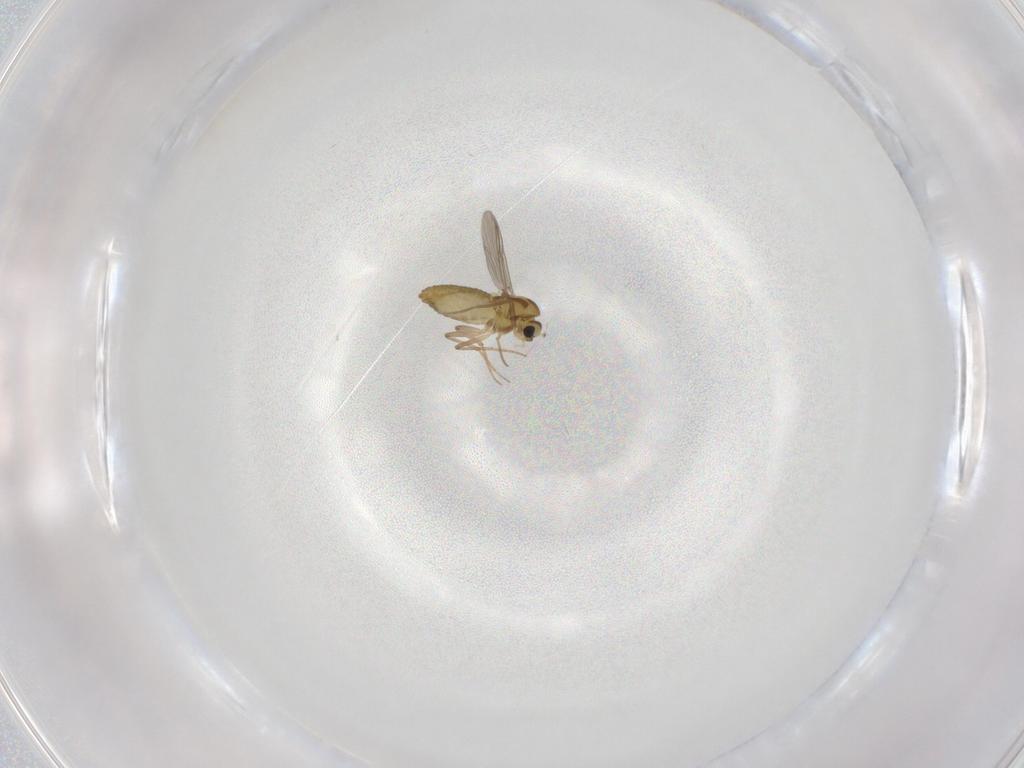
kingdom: Animalia
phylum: Arthropoda
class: Insecta
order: Diptera
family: Chironomidae
